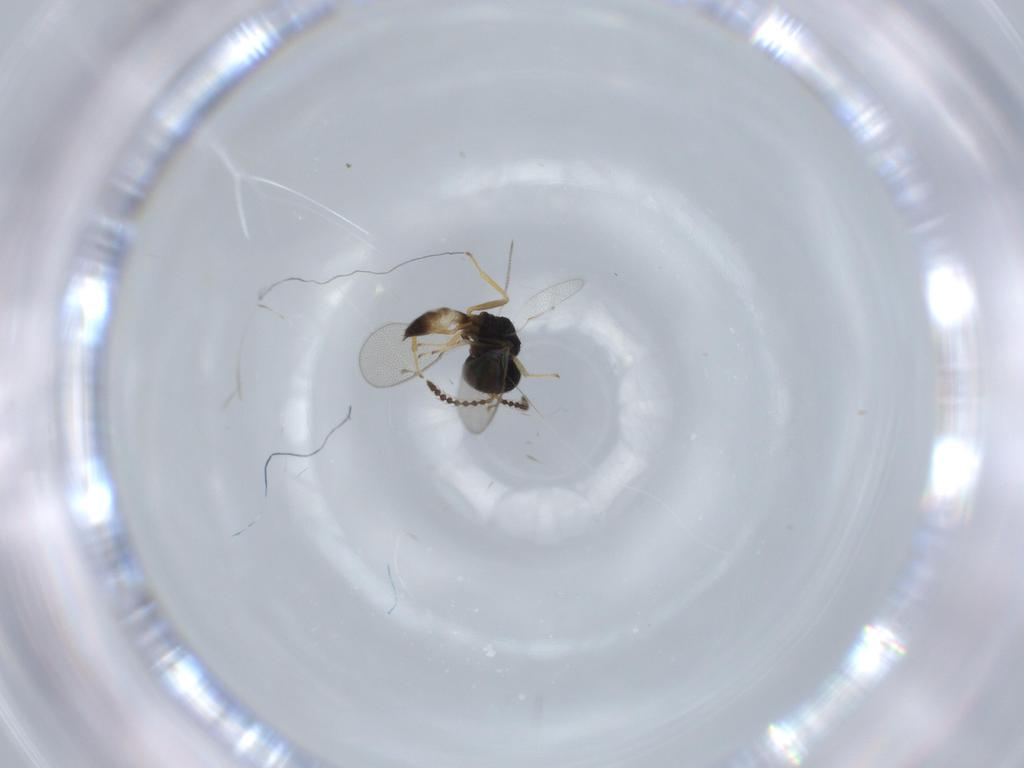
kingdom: Animalia
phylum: Arthropoda
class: Insecta
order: Hymenoptera
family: Pteromalidae
